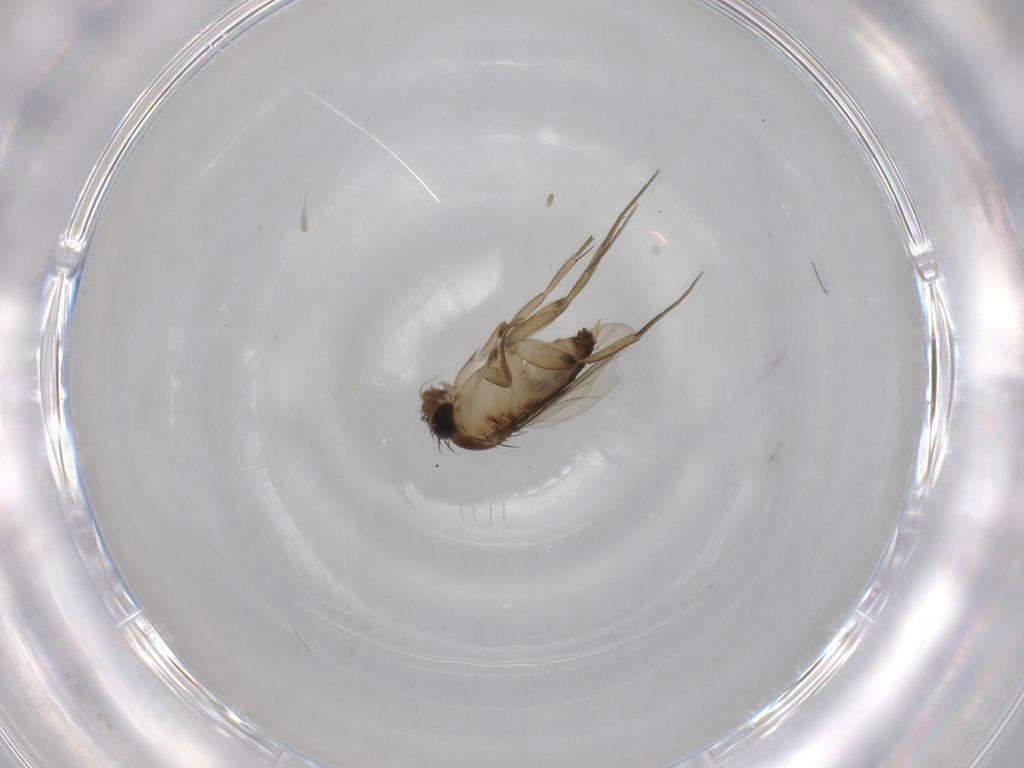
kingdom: Animalia
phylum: Arthropoda
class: Insecta
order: Diptera
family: Phoridae
